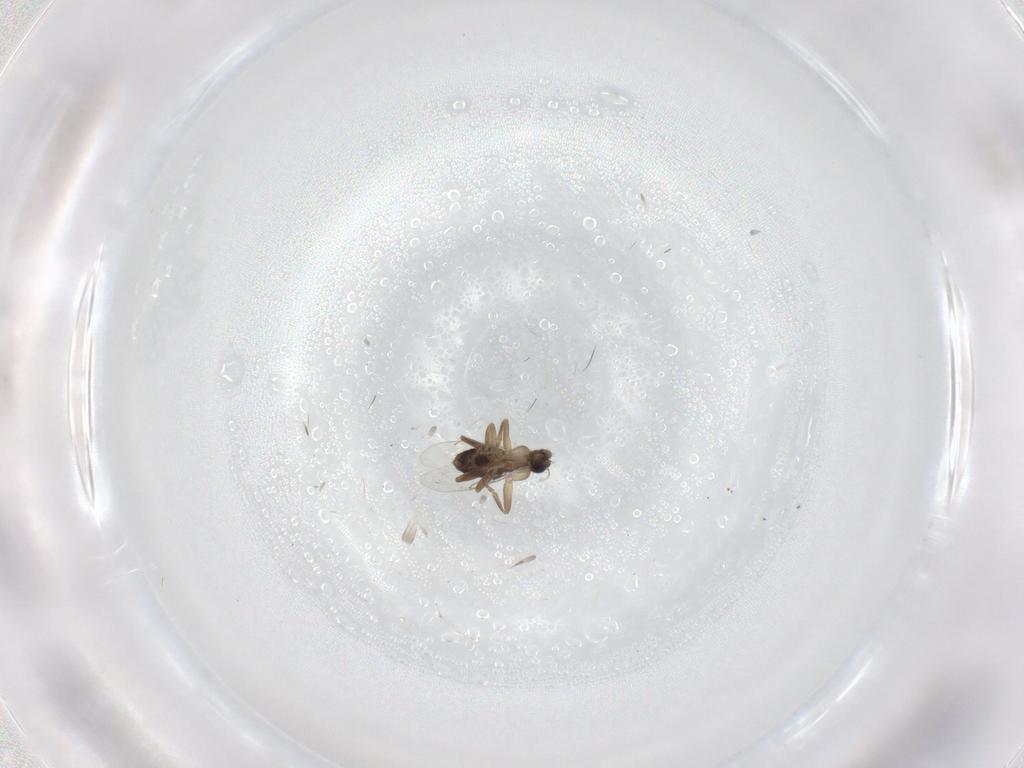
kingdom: Animalia
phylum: Arthropoda
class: Insecta
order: Diptera
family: Phoridae
